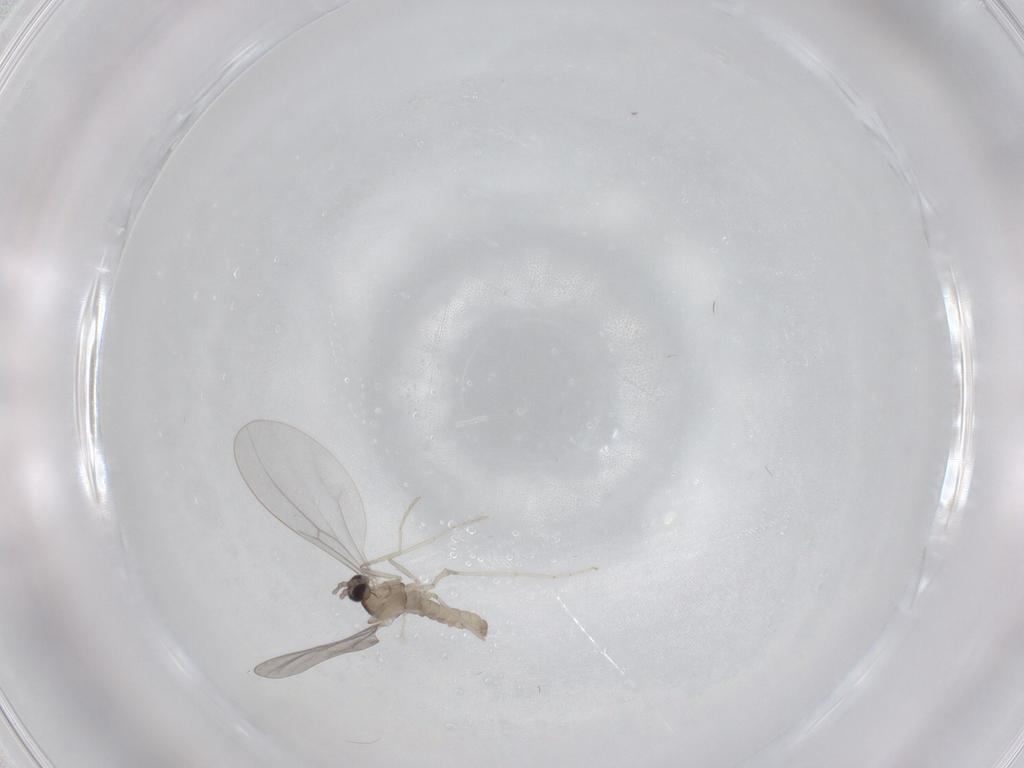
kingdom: Animalia
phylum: Arthropoda
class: Insecta
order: Diptera
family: Cecidomyiidae
